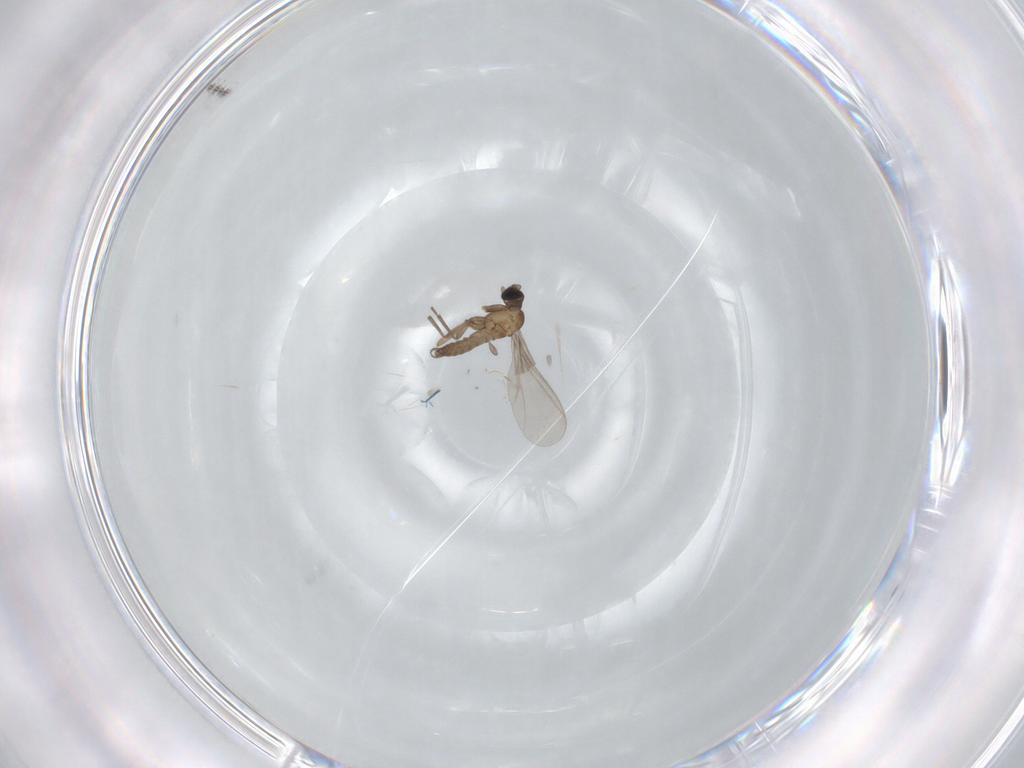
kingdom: Animalia
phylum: Arthropoda
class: Insecta
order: Diptera
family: Sciaridae
